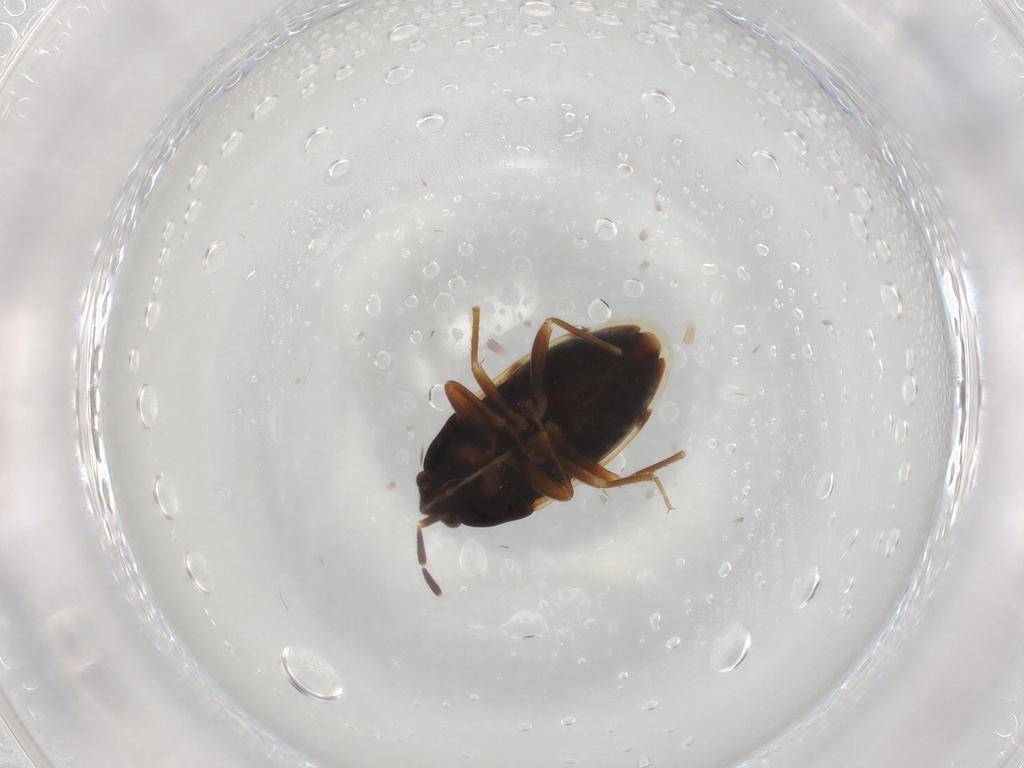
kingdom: Animalia
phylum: Arthropoda
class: Insecta
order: Hemiptera
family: Rhyparochromidae
